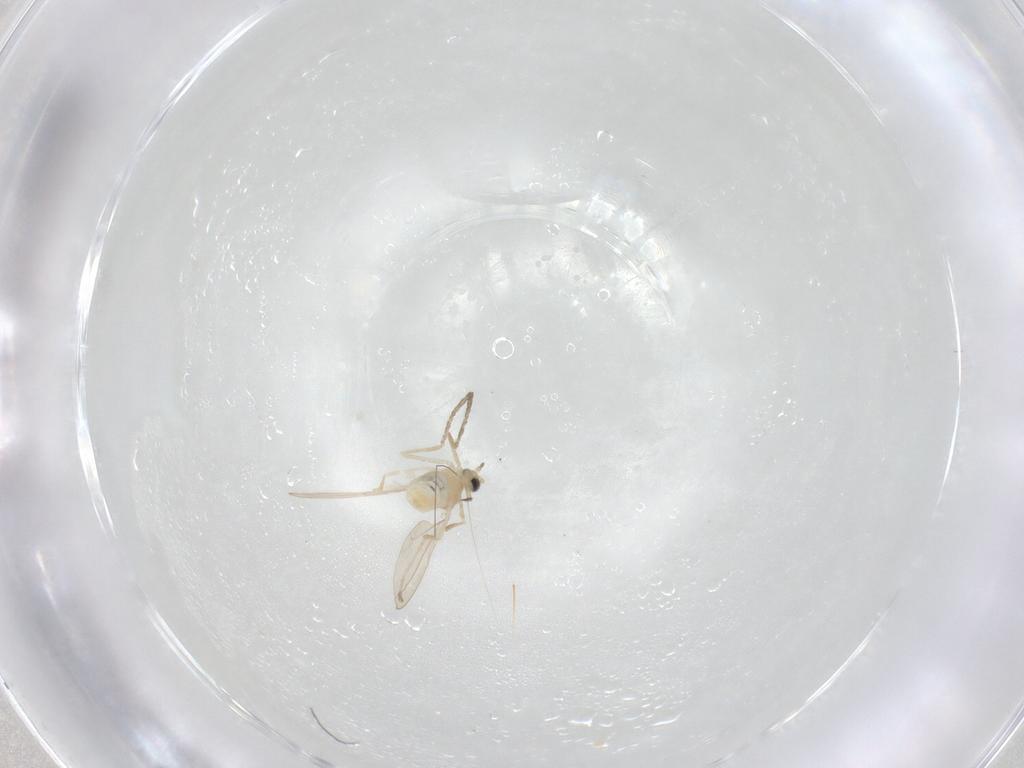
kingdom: Animalia
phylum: Arthropoda
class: Insecta
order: Diptera
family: Cecidomyiidae
